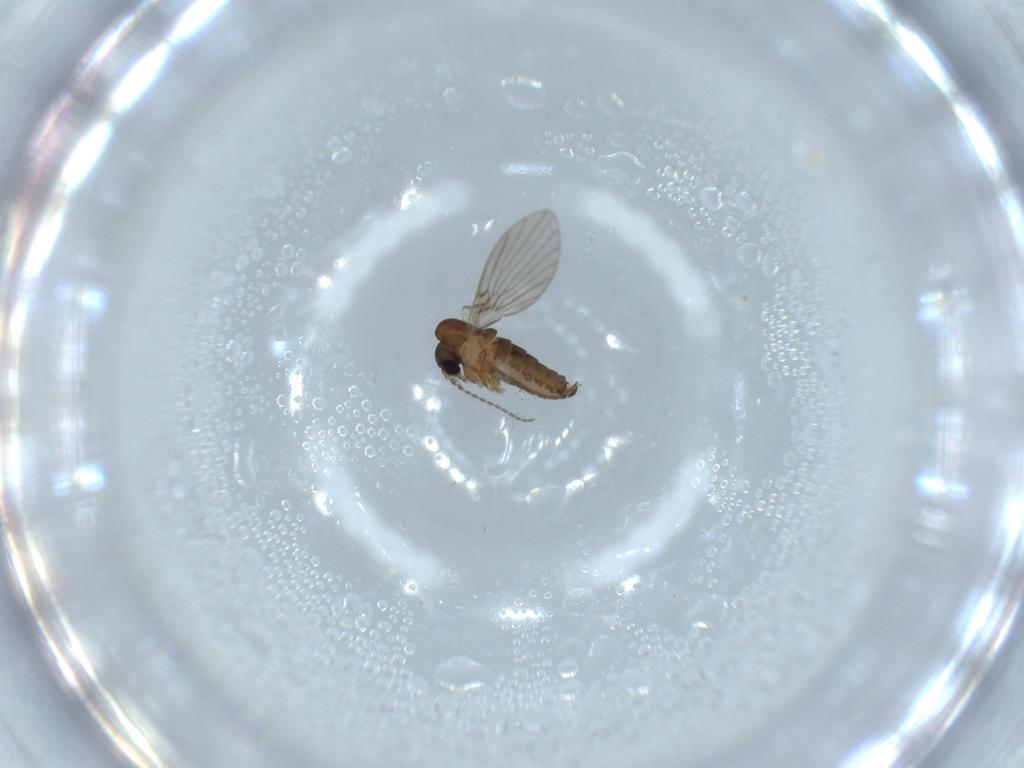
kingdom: Animalia
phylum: Arthropoda
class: Insecta
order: Diptera
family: Psychodidae
